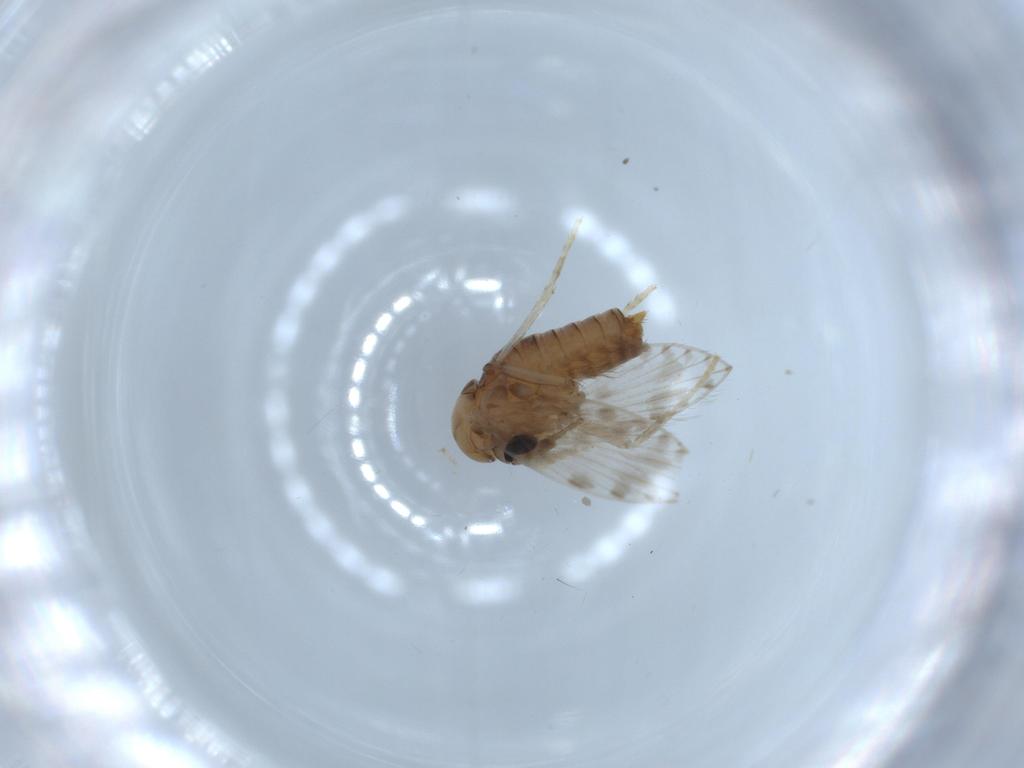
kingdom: Animalia
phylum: Arthropoda
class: Insecta
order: Diptera
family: Psychodidae
